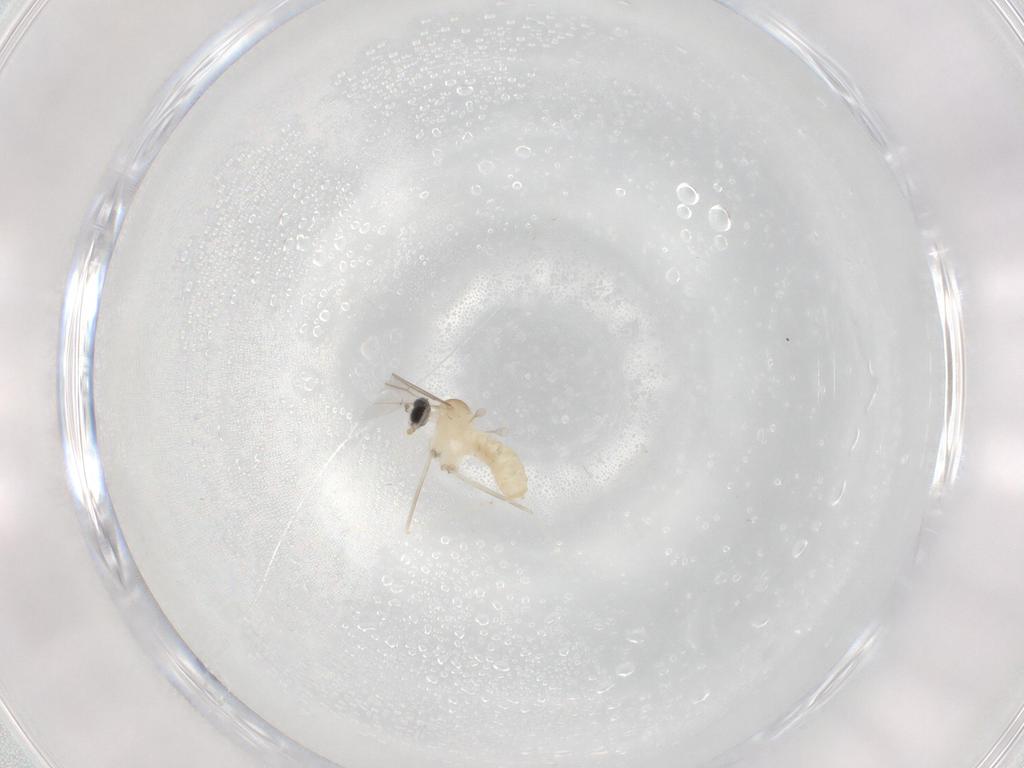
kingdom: Animalia
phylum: Arthropoda
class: Insecta
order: Diptera
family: Cecidomyiidae
